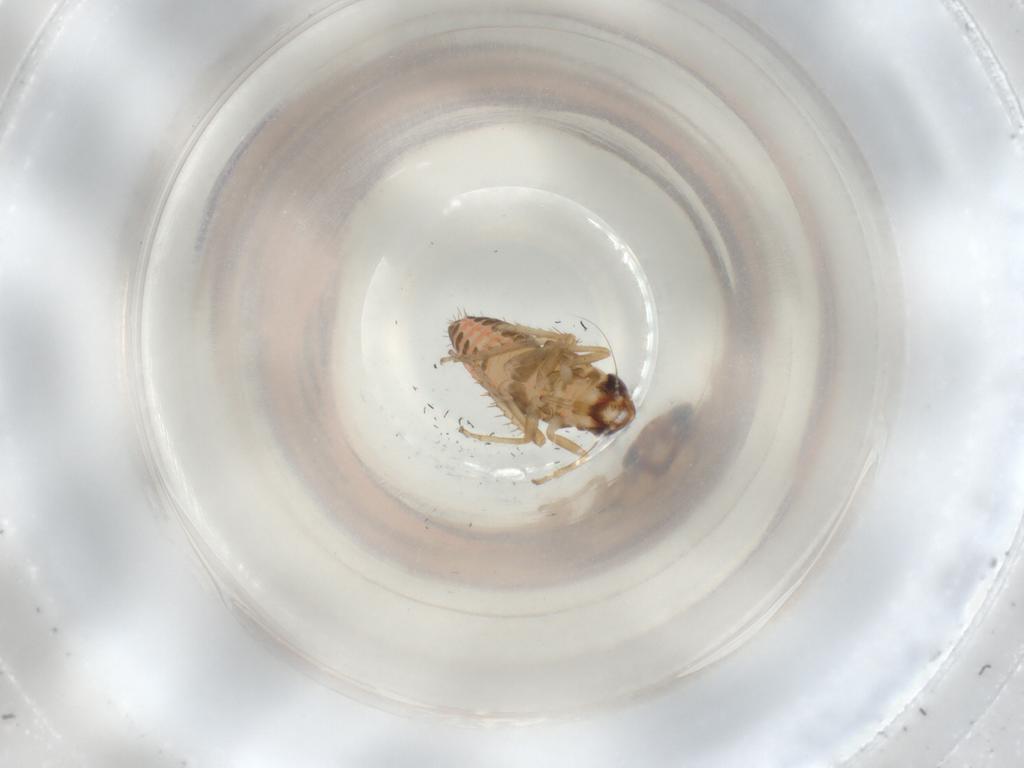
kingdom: Animalia
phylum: Arthropoda
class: Insecta
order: Hemiptera
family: Cicadellidae
